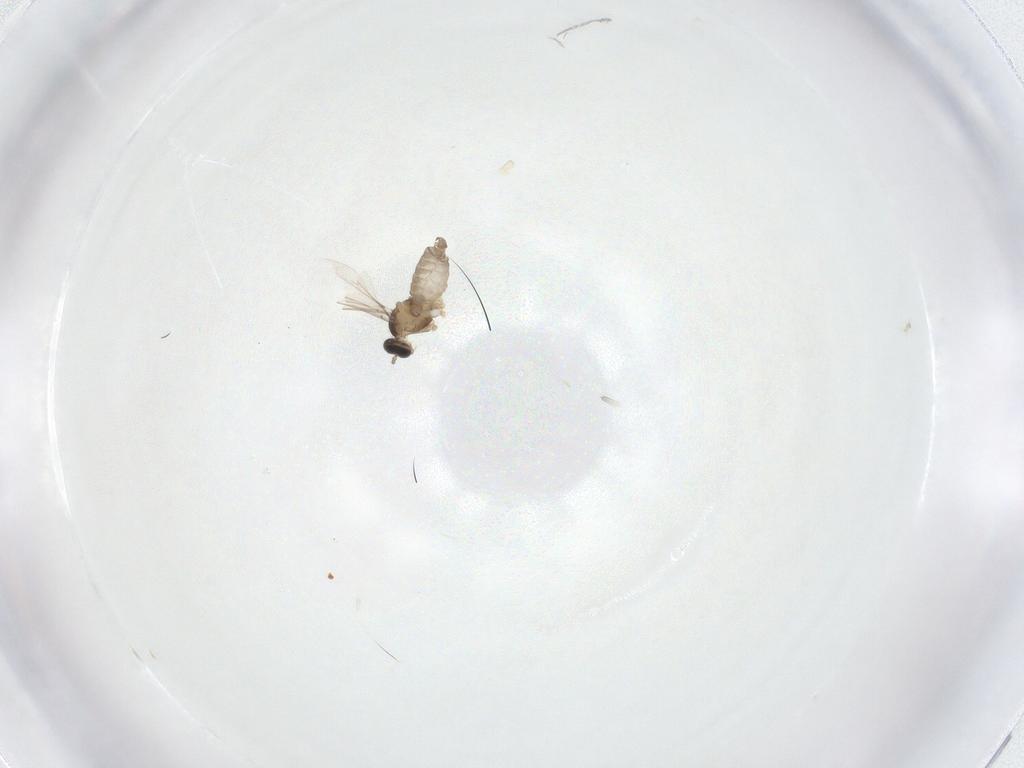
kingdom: Animalia
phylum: Arthropoda
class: Insecta
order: Diptera
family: Cecidomyiidae
